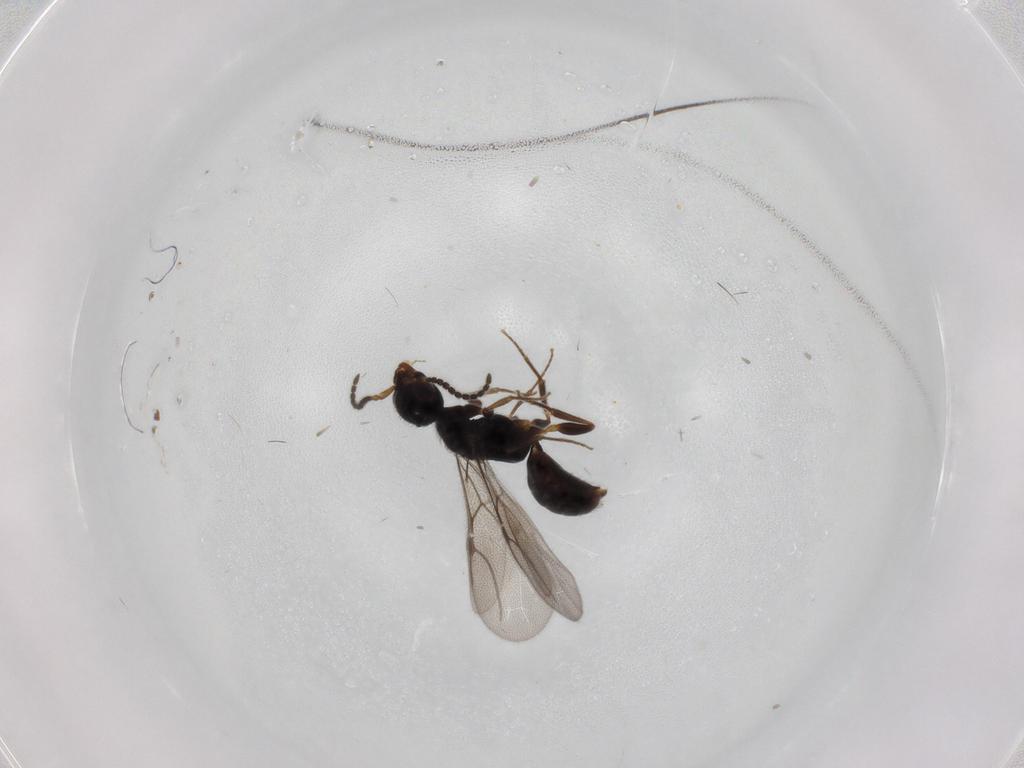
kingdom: Animalia
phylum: Arthropoda
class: Insecta
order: Hymenoptera
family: Bethylidae
